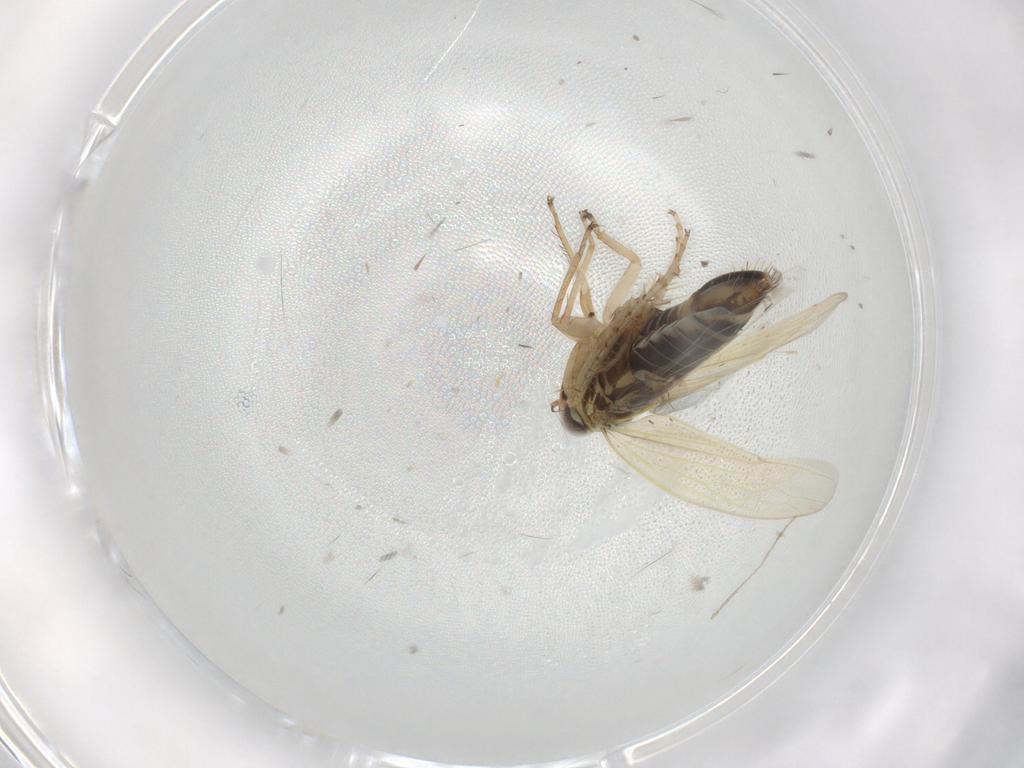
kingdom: Animalia
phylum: Arthropoda
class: Insecta
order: Hemiptera
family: Cicadellidae
